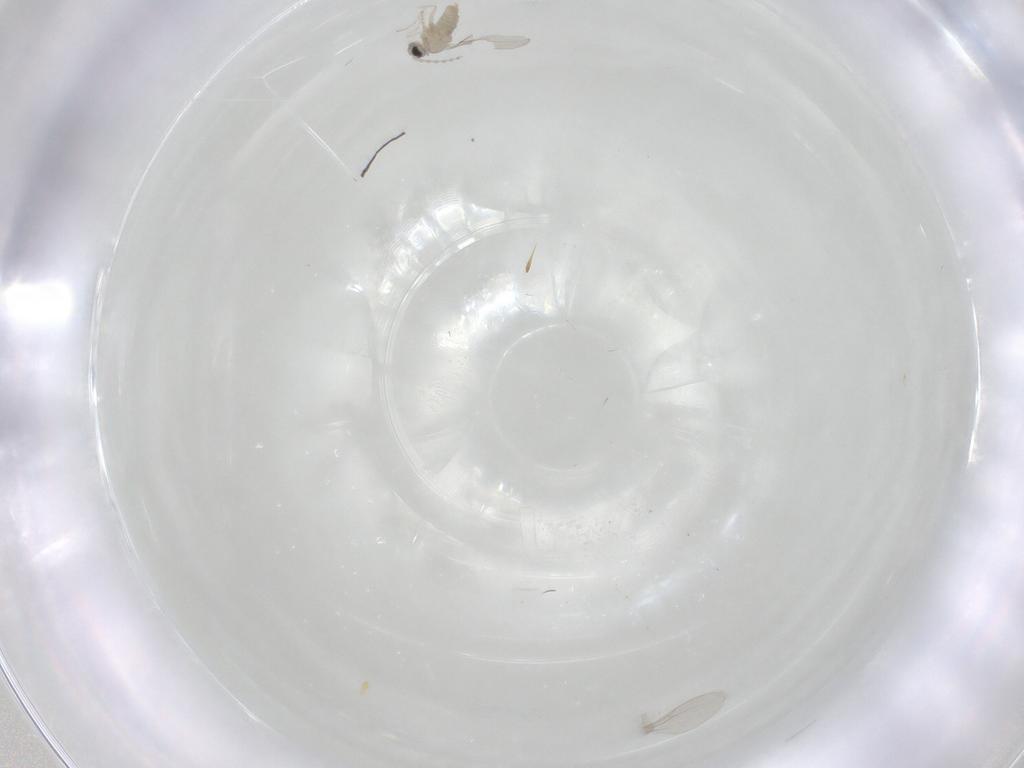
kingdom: Animalia
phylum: Arthropoda
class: Insecta
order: Diptera
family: Cecidomyiidae
